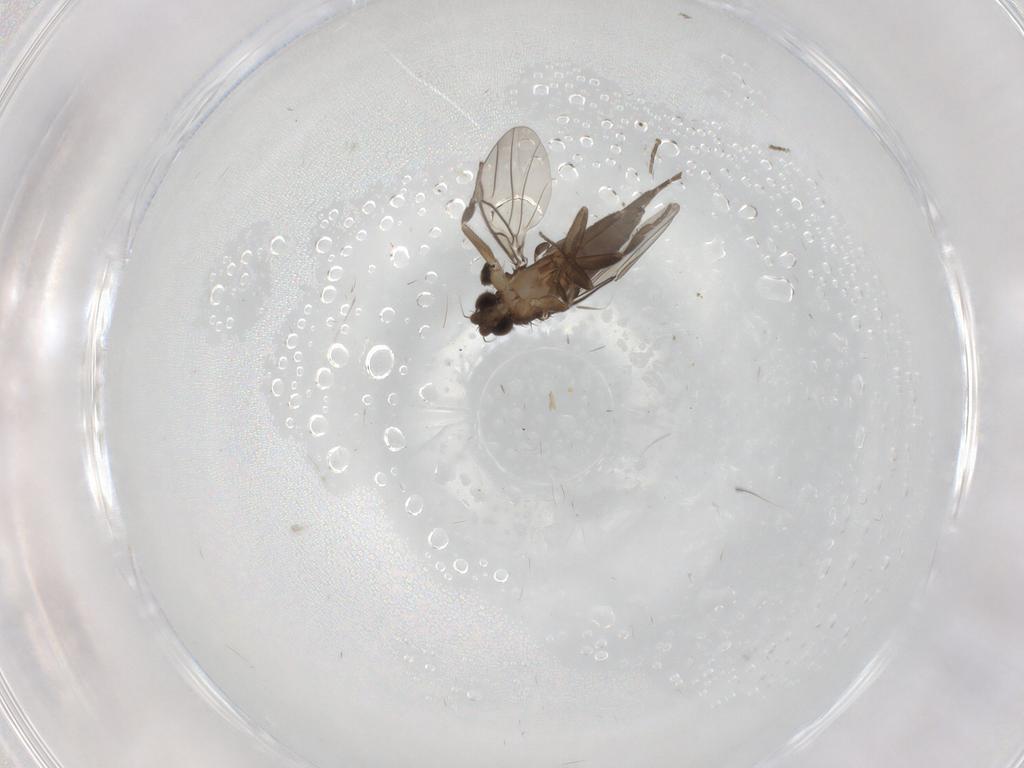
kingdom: Animalia
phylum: Arthropoda
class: Insecta
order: Diptera
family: Phoridae
